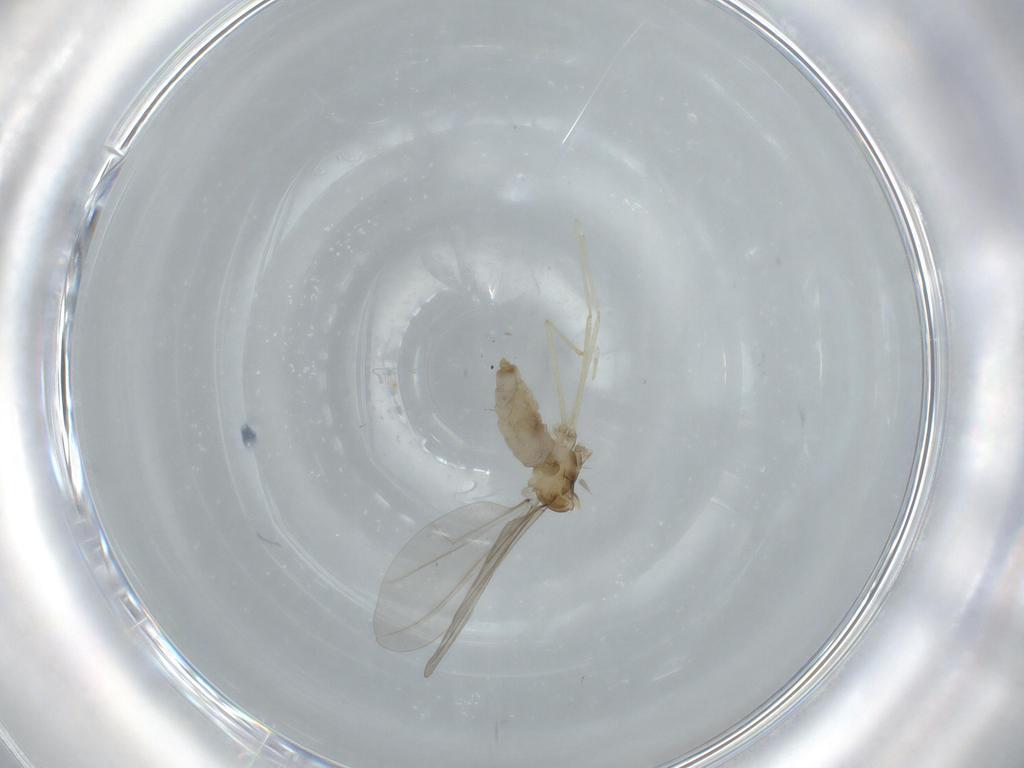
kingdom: Animalia
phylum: Arthropoda
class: Insecta
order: Diptera
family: Cecidomyiidae
